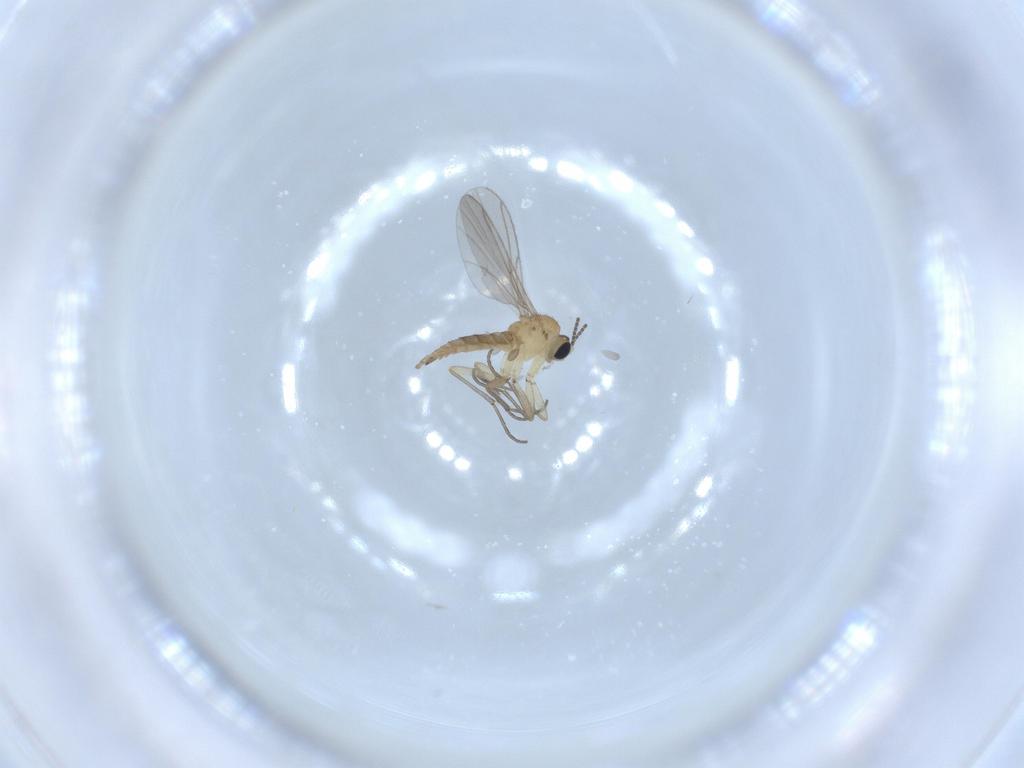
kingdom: Animalia
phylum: Arthropoda
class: Insecta
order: Diptera
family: Sciaridae
